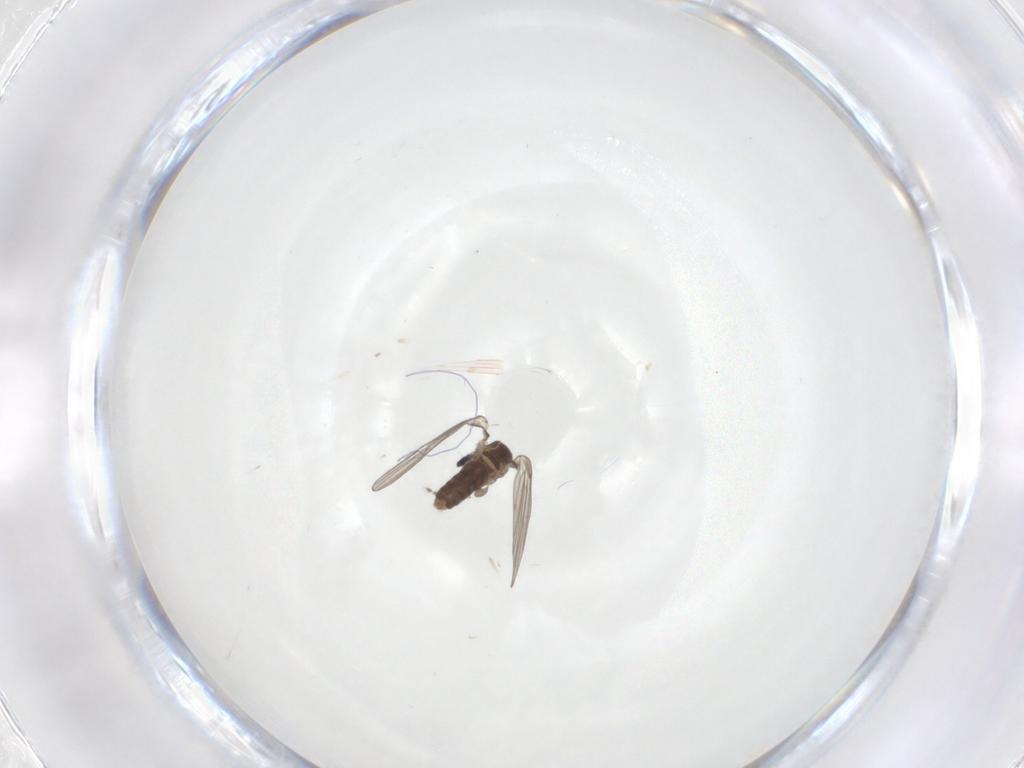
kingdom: Animalia
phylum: Arthropoda
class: Insecta
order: Diptera
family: Psychodidae
